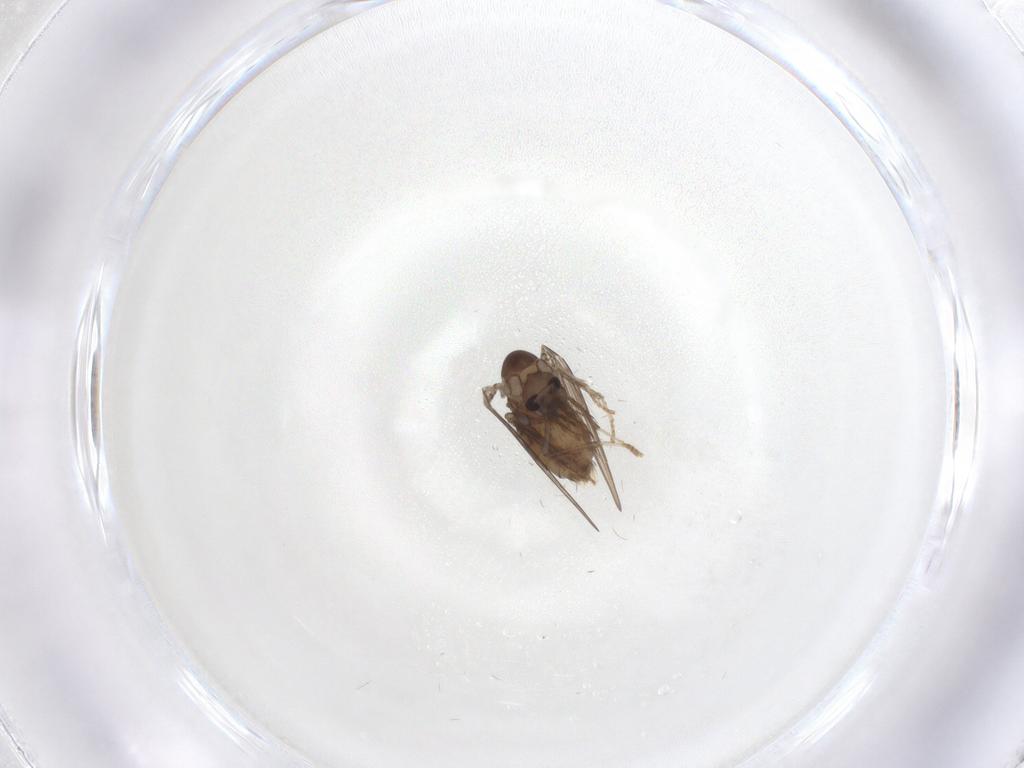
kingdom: Animalia
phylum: Arthropoda
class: Insecta
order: Diptera
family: Psychodidae
